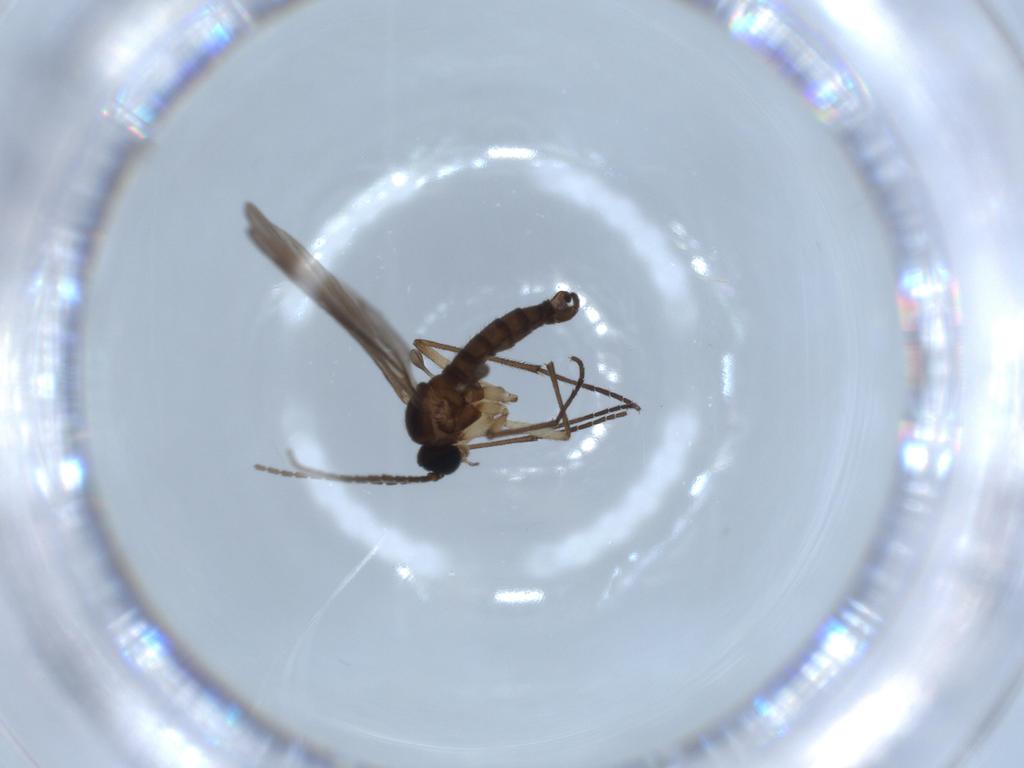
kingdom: Animalia
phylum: Arthropoda
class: Insecta
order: Diptera
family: Sciaridae
